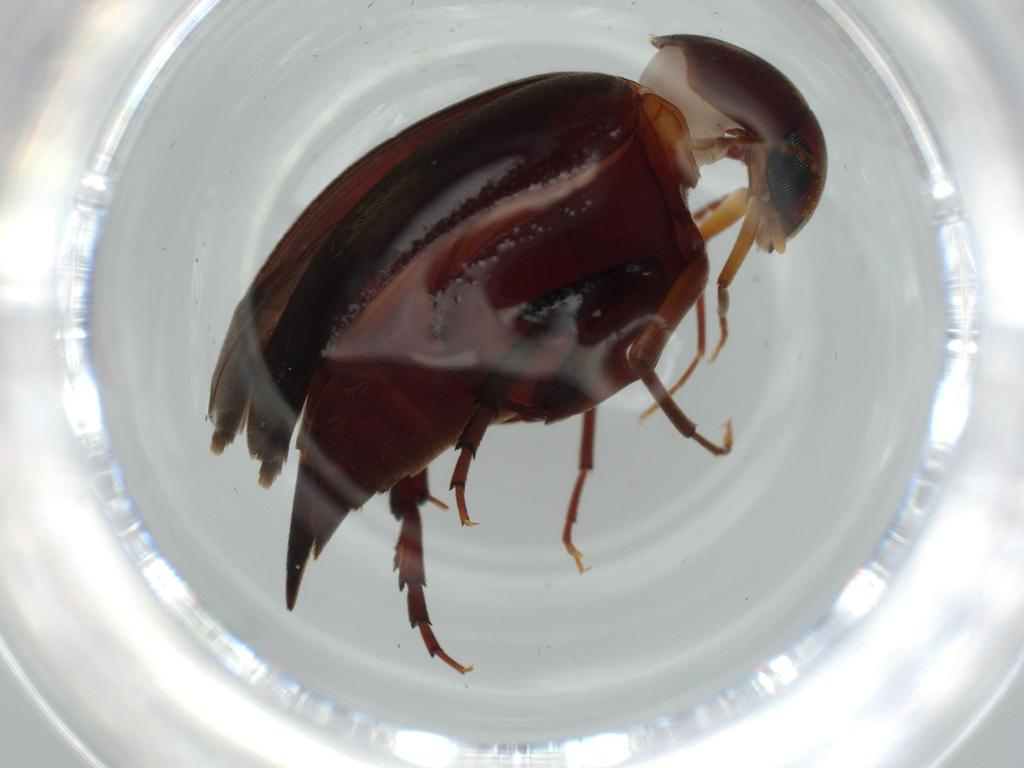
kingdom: Animalia
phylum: Arthropoda
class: Insecta
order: Coleoptera
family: Mordellidae
